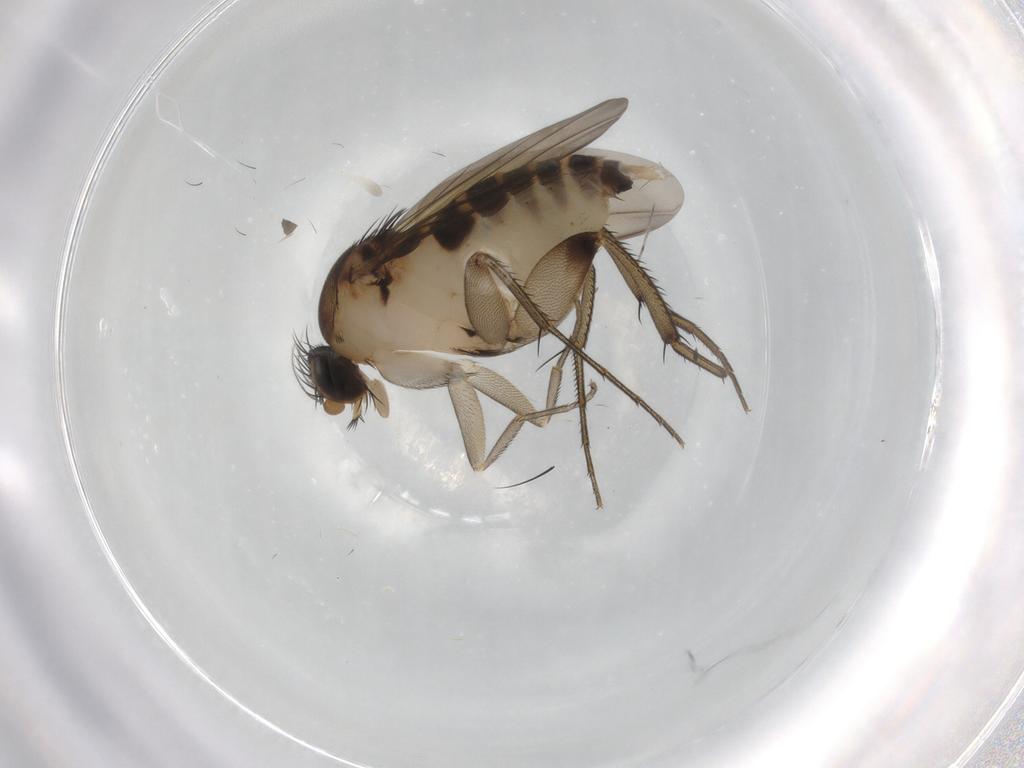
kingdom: Animalia
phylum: Arthropoda
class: Insecta
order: Diptera
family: Phoridae
